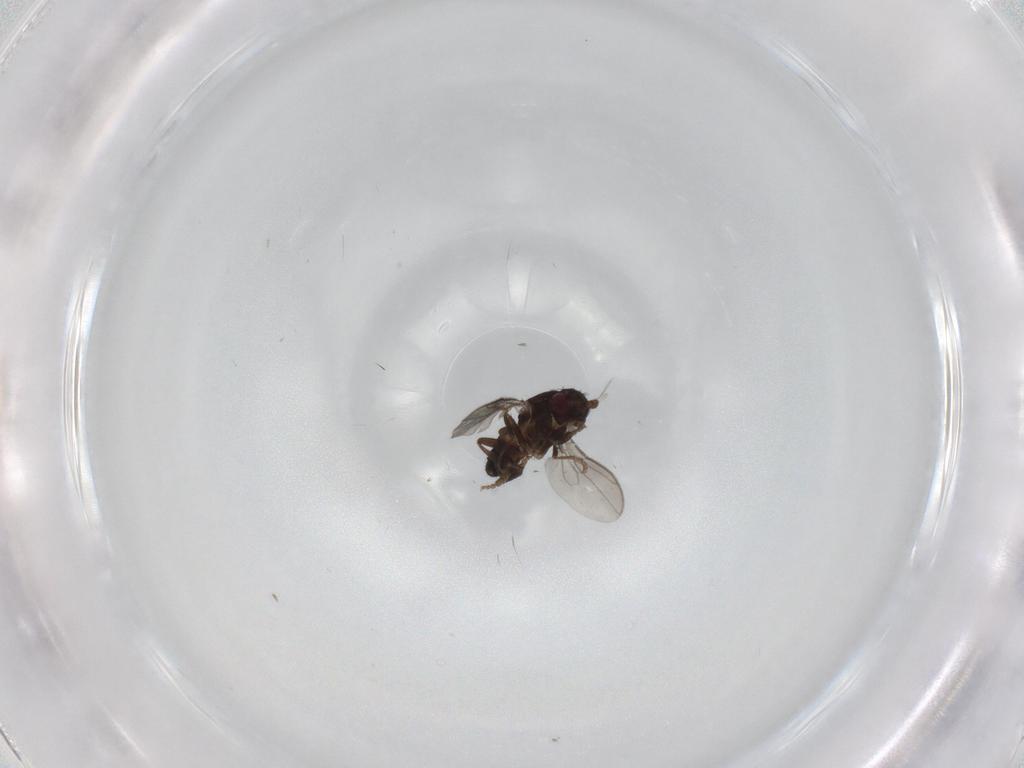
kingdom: Animalia
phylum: Arthropoda
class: Insecta
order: Diptera
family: Sphaeroceridae
